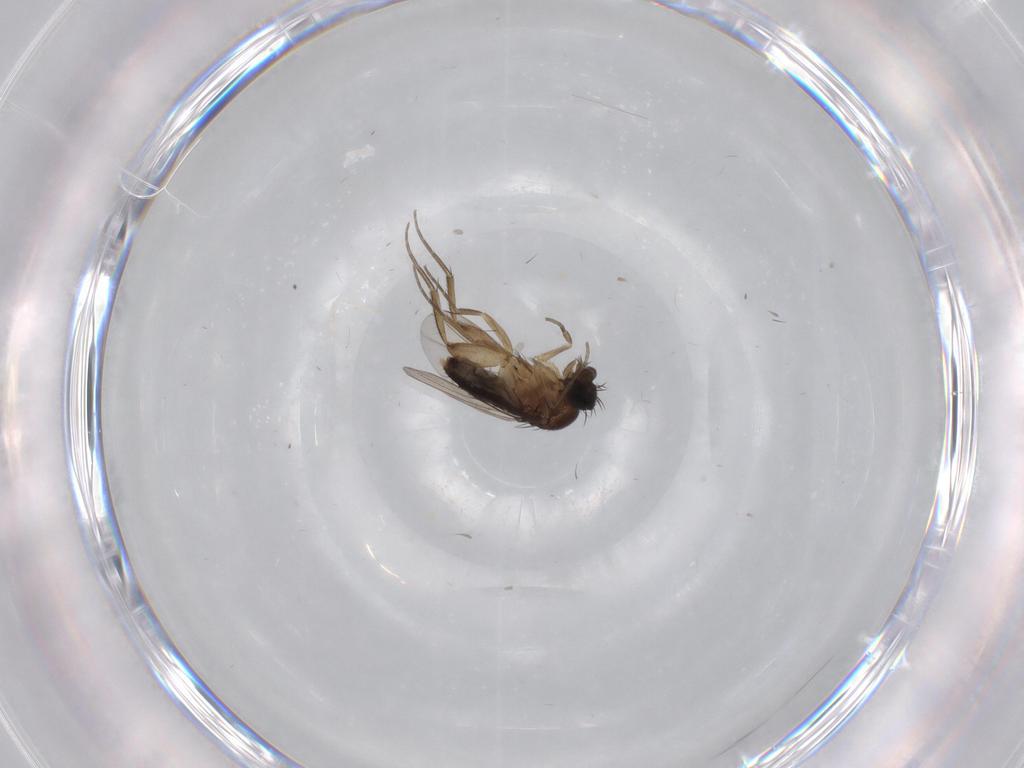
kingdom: Animalia
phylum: Arthropoda
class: Insecta
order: Diptera
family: Phoridae
